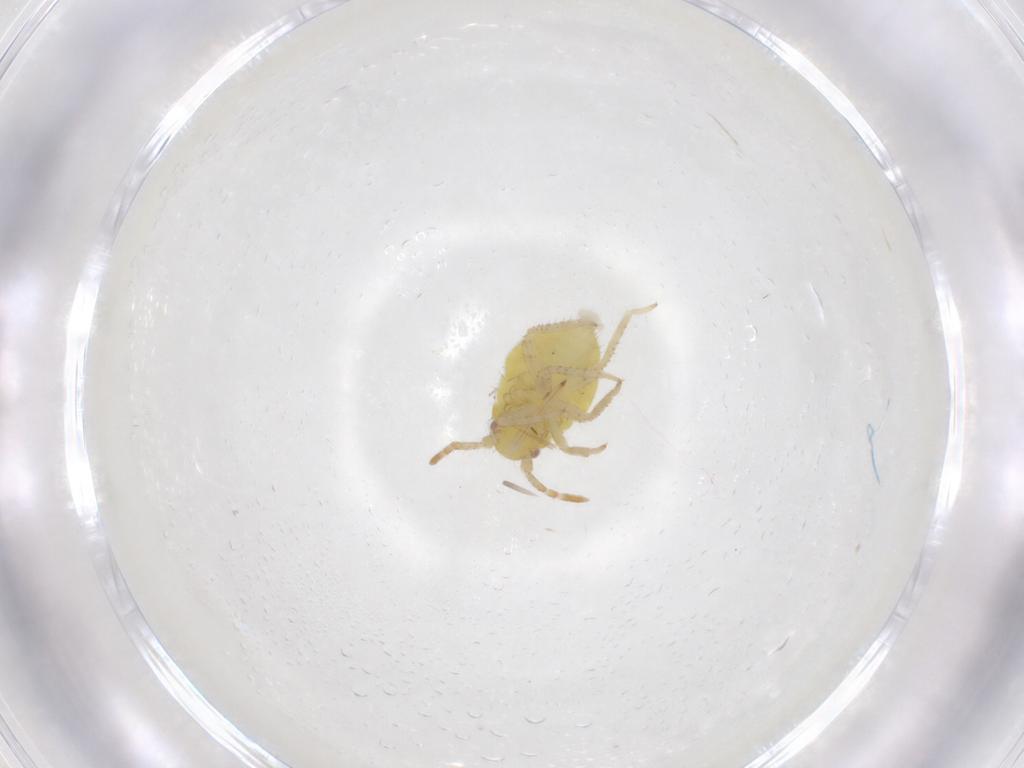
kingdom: Animalia
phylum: Arthropoda
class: Insecta
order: Hemiptera
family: Miridae
